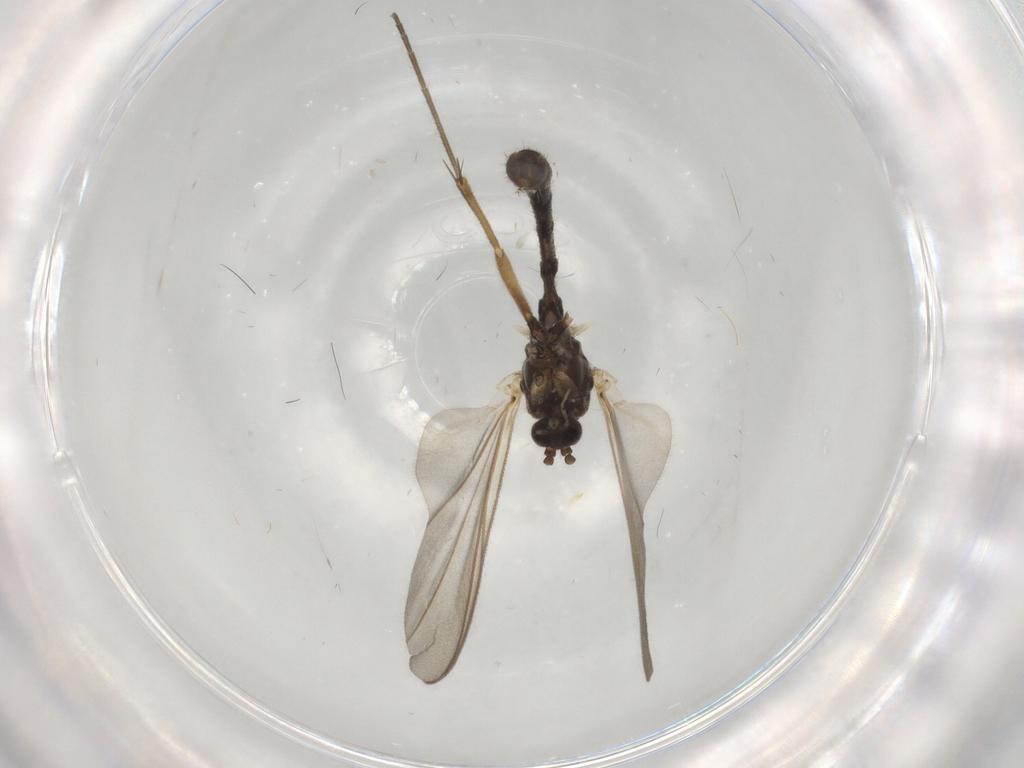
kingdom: Animalia
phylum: Arthropoda
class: Insecta
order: Diptera
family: Mycetophilidae
